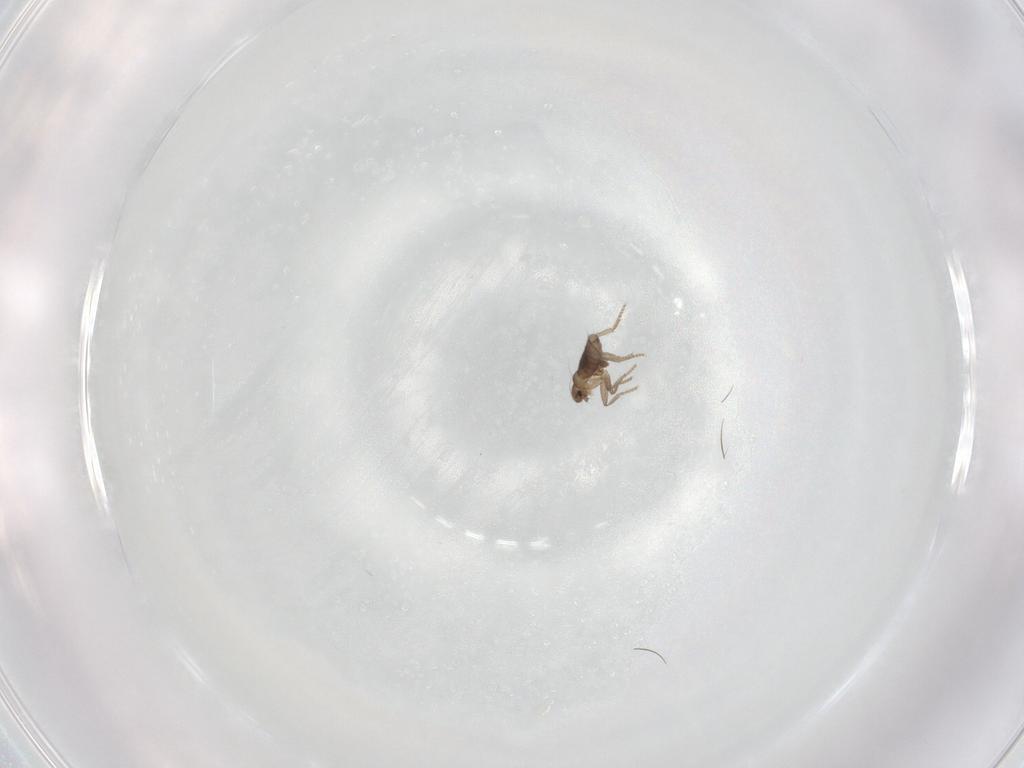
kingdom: Animalia
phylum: Arthropoda
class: Insecta
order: Diptera
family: Phoridae
